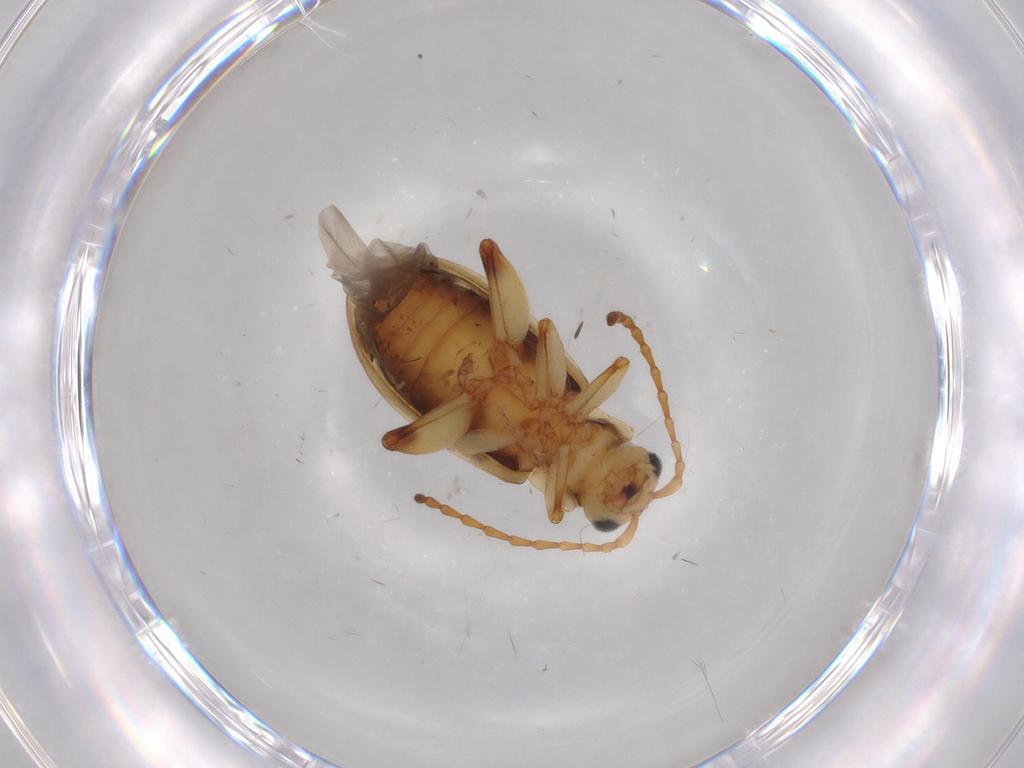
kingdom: Animalia
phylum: Arthropoda
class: Insecta
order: Coleoptera
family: Chrysomelidae
